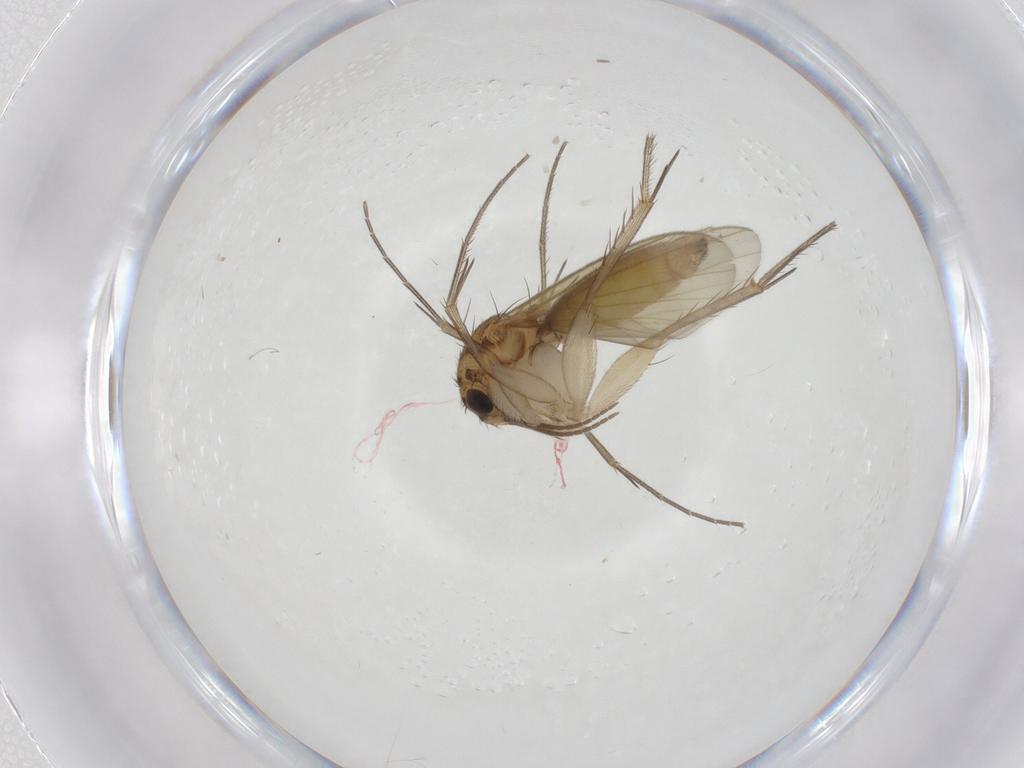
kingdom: Animalia
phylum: Arthropoda
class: Insecta
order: Diptera
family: Mycetophilidae
